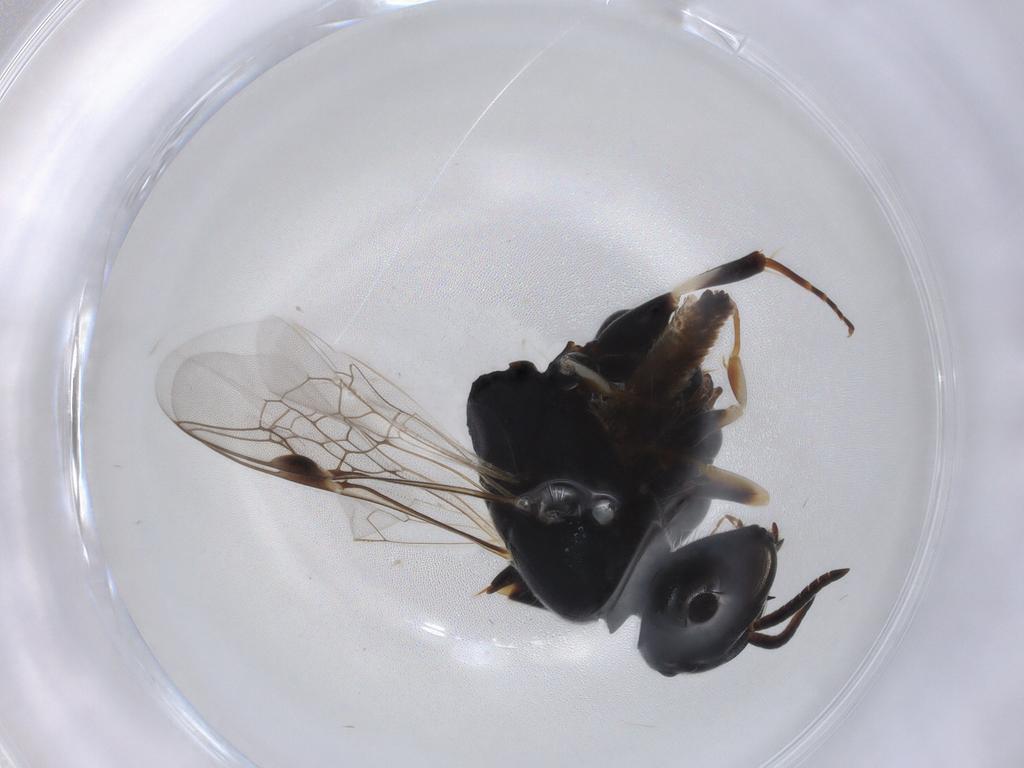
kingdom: Animalia
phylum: Arthropoda
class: Insecta
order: Hymenoptera
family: Crabronidae
